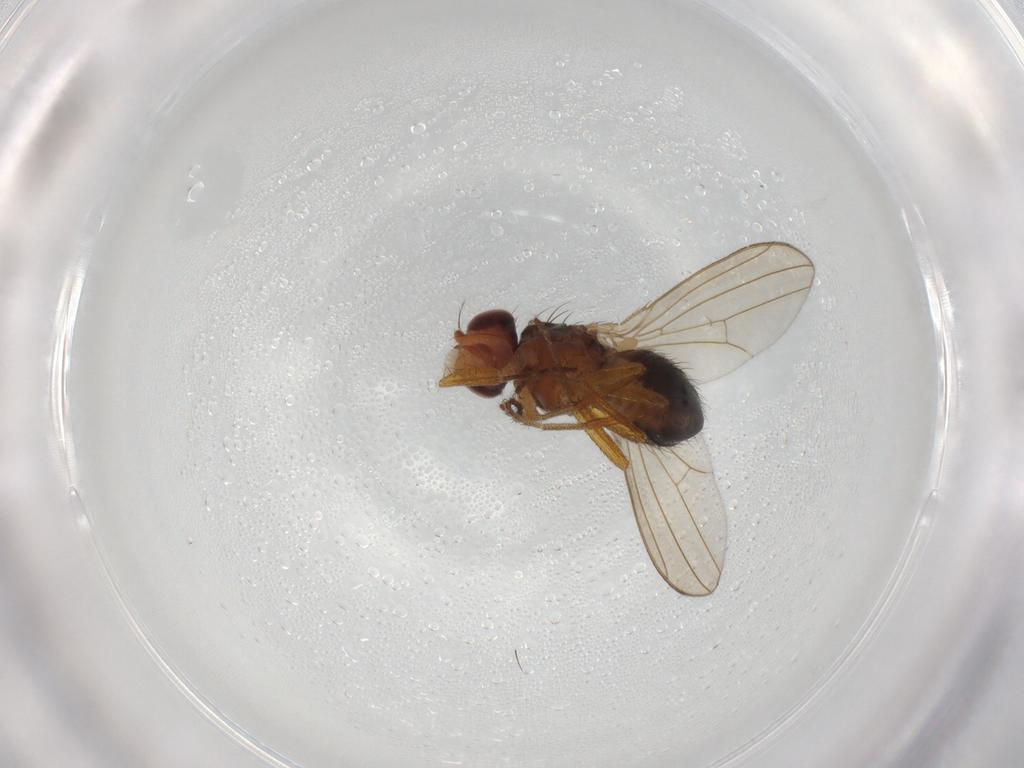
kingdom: Animalia
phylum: Arthropoda
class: Insecta
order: Diptera
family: Drosophilidae
